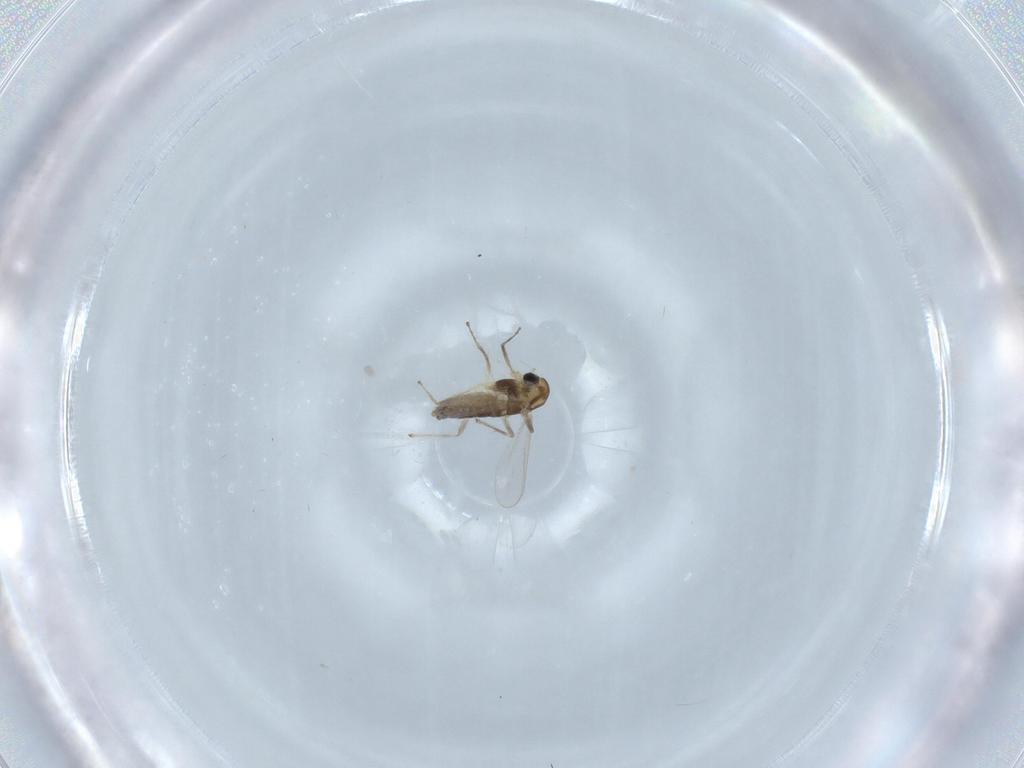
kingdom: Animalia
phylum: Arthropoda
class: Insecta
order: Diptera
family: Chironomidae
